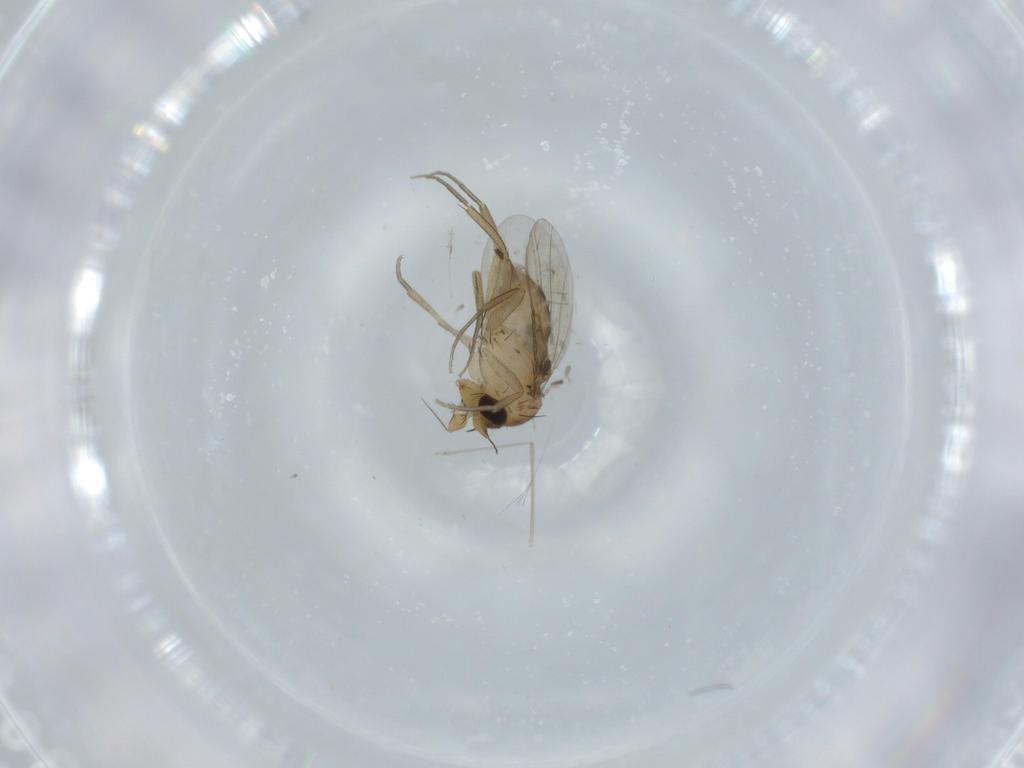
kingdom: Animalia
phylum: Arthropoda
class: Insecta
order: Diptera
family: Phoridae
